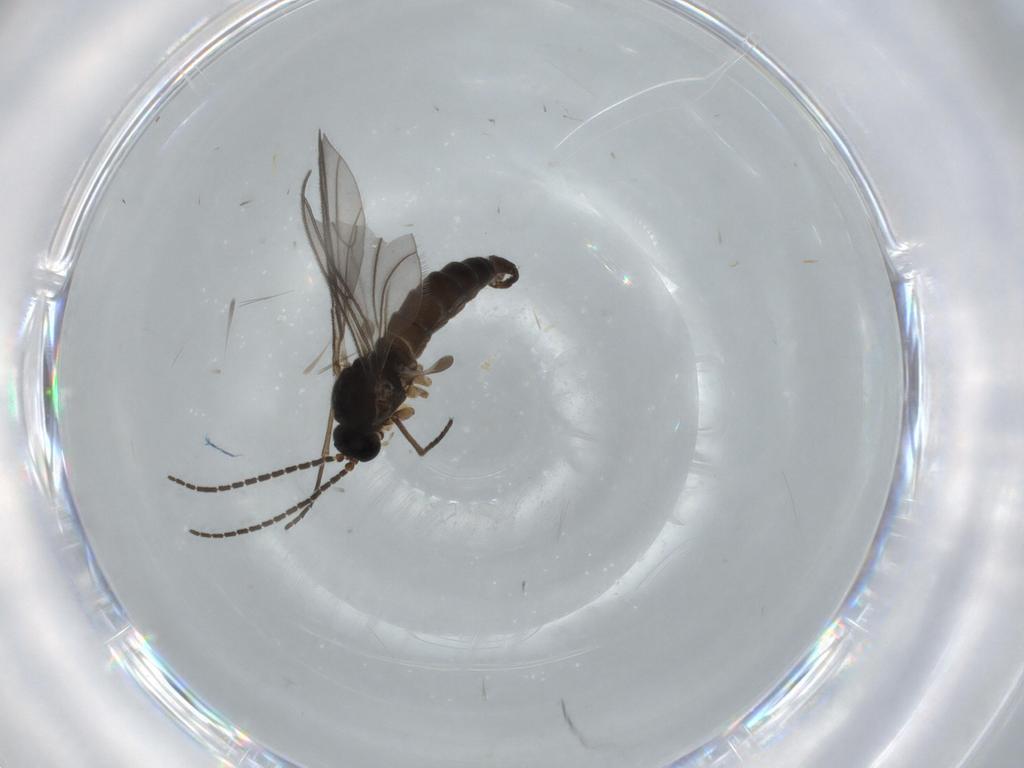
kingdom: Animalia
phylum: Arthropoda
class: Insecta
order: Diptera
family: Sciaridae
